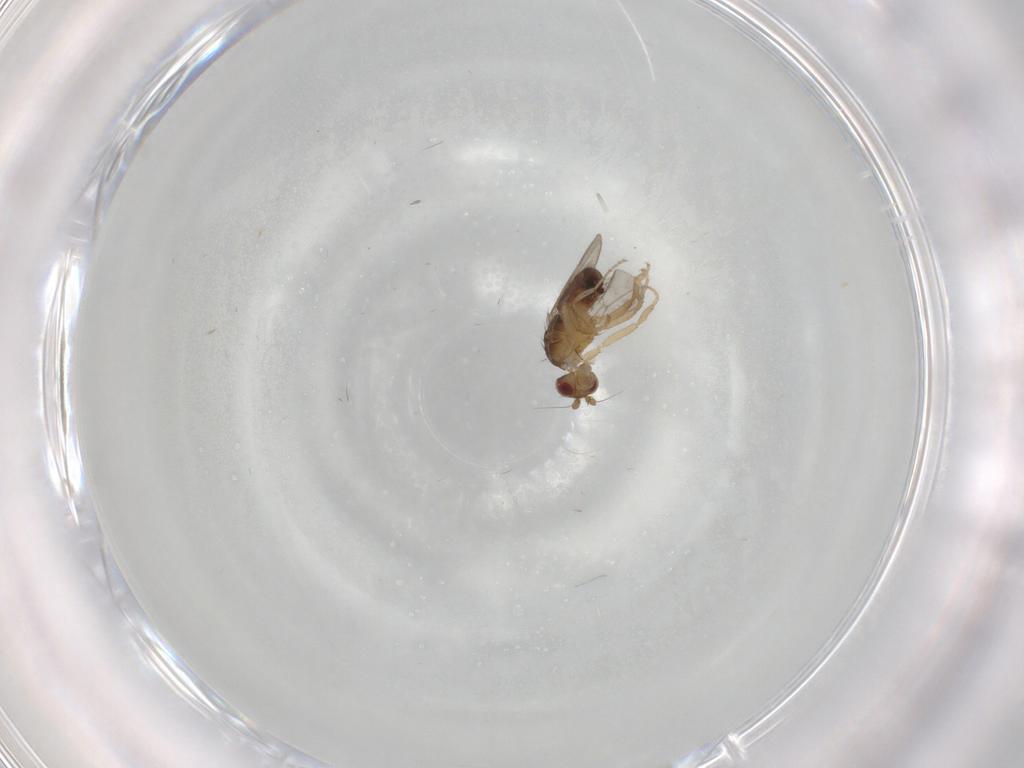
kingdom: Animalia
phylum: Arthropoda
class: Insecta
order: Diptera
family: Sphaeroceridae
